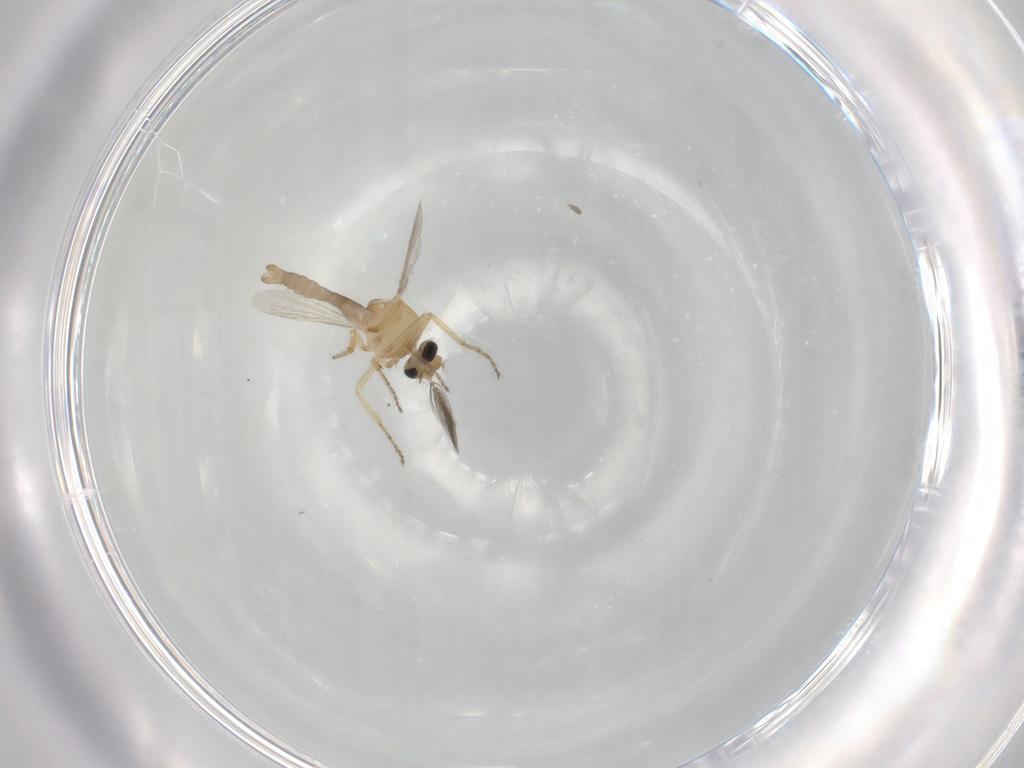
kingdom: Animalia
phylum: Arthropoda
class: Insecta
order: Diptera
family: Ceratopogonidae
